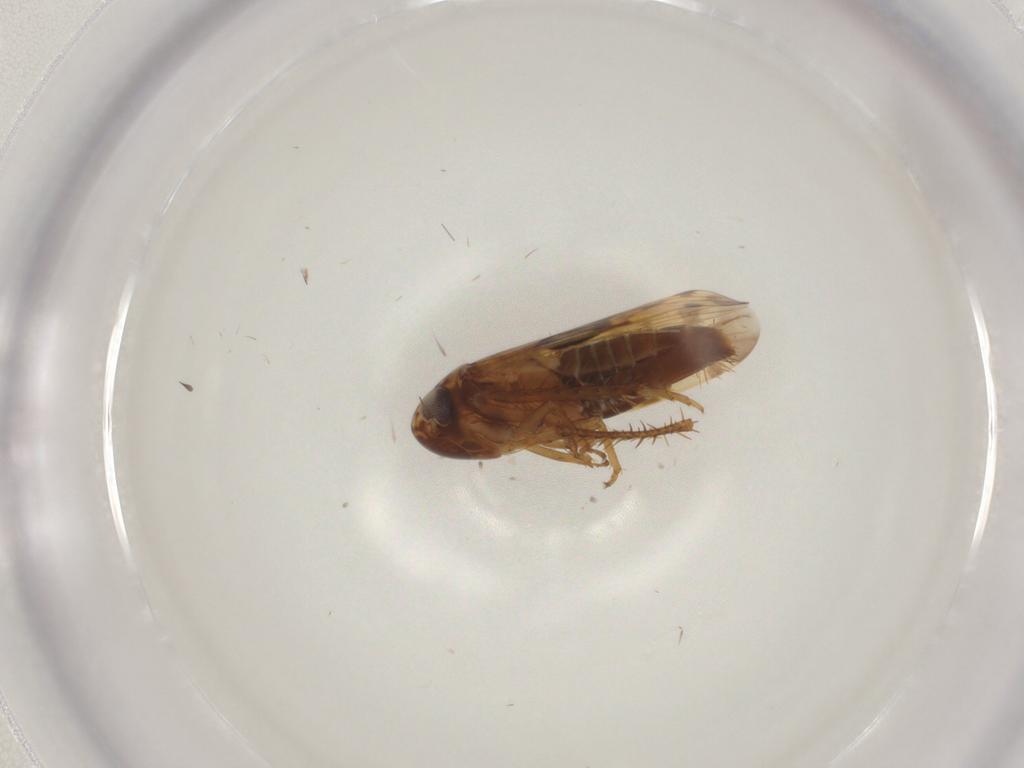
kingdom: Animalia
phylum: Arthropoda
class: Insecta
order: Hemiptera
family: Cicadellidae
